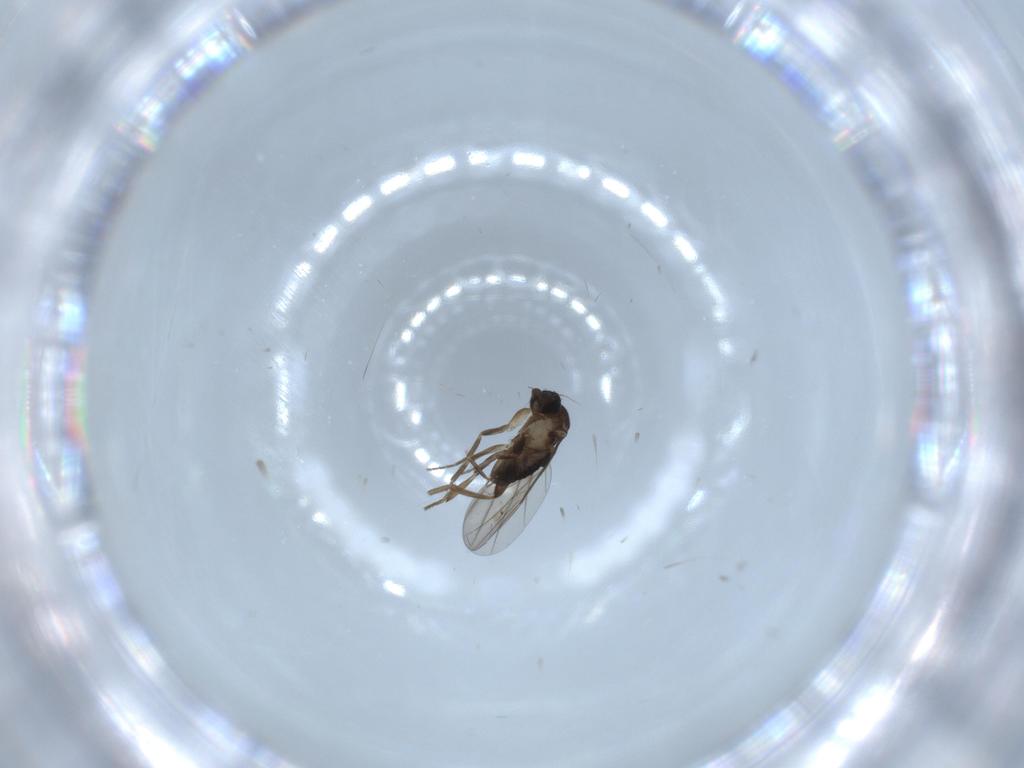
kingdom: Animalia
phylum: Arthropoda
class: Insecta
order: Diptera
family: Phoridae
